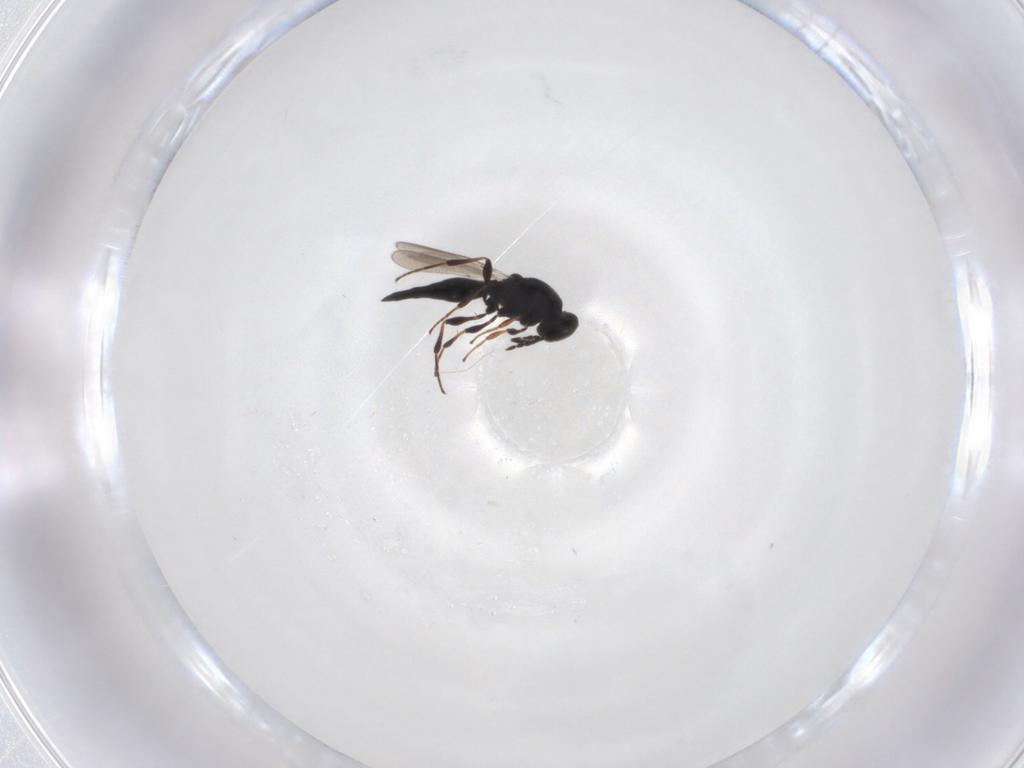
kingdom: Animalia
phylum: Arthropoda
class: Insecta
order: Hymenoptera
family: Platygastridae
